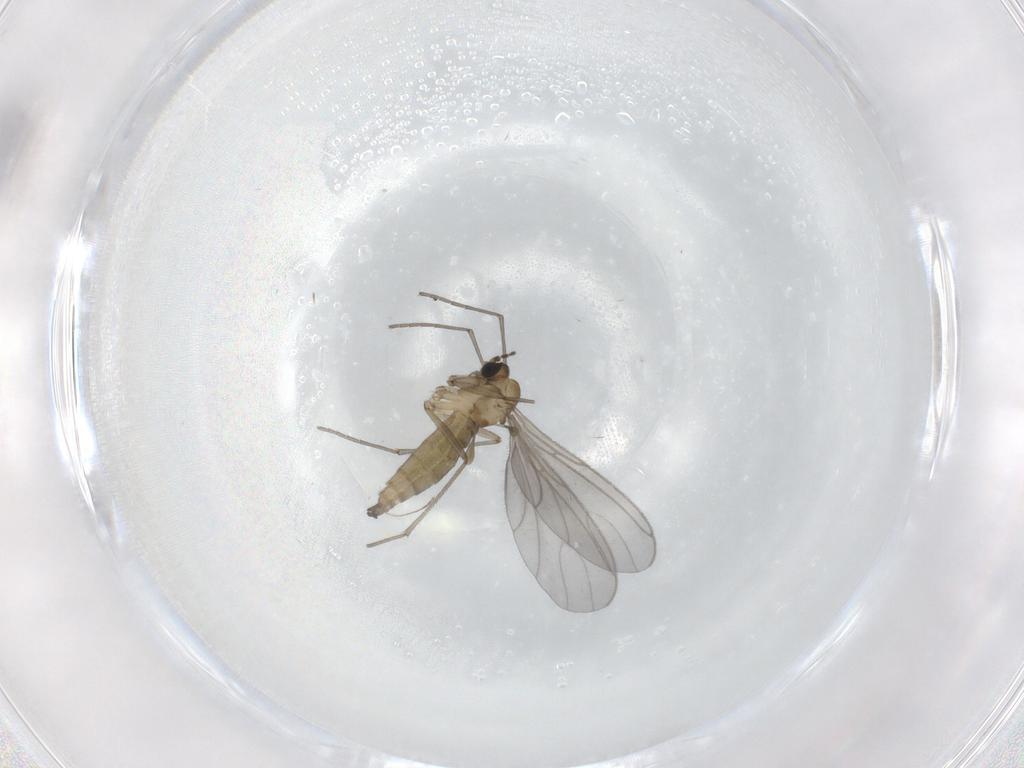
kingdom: Animalia
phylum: Arthropoda
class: Insecta
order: Diptera
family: Sciaridae
